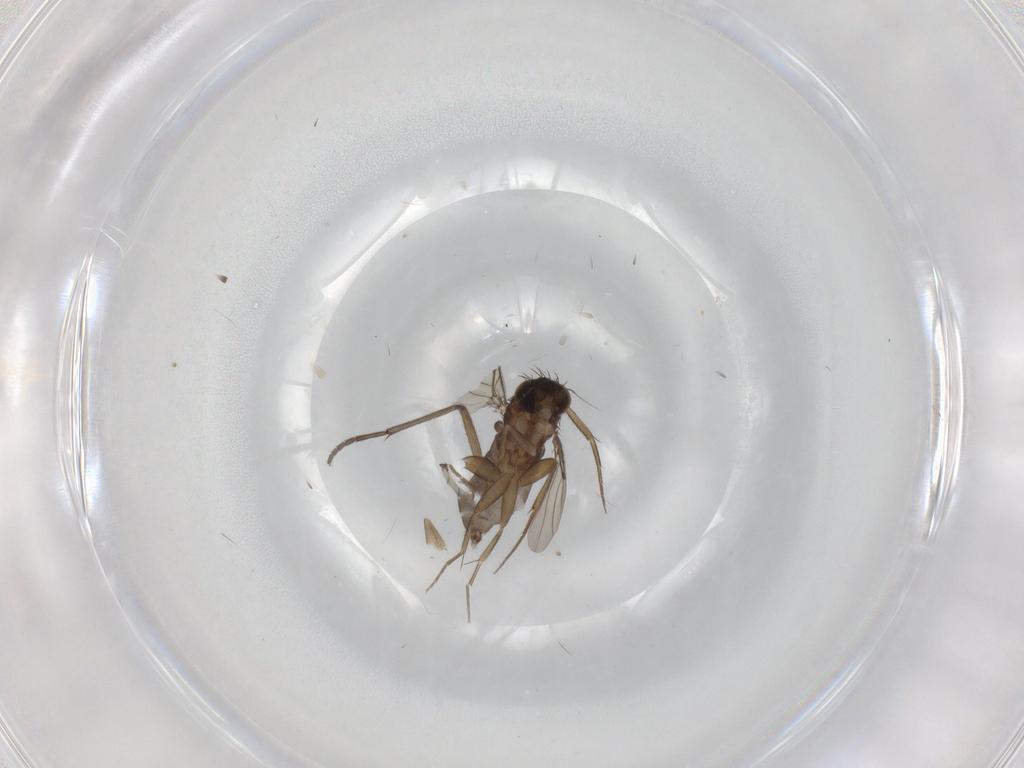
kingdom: Animalia
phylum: Arthropoda
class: Insecta
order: Diptera
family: Phoridae
